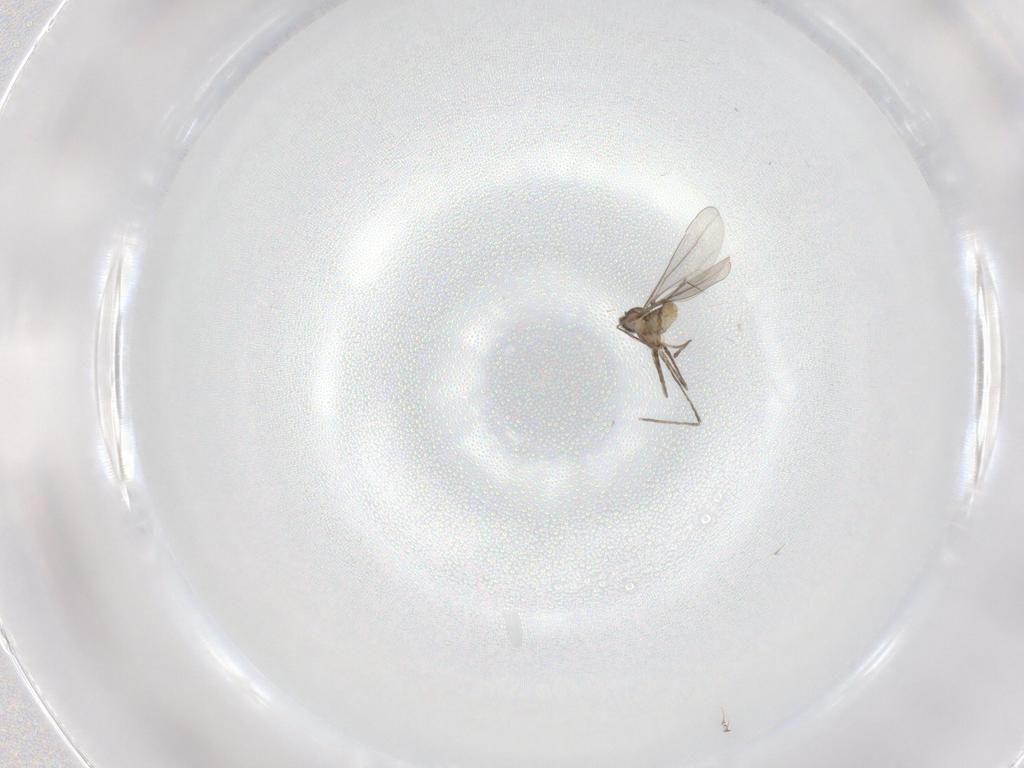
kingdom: Animalia
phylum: Arthropoda
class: Insecta
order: Diptera
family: Cecidomyiidae
